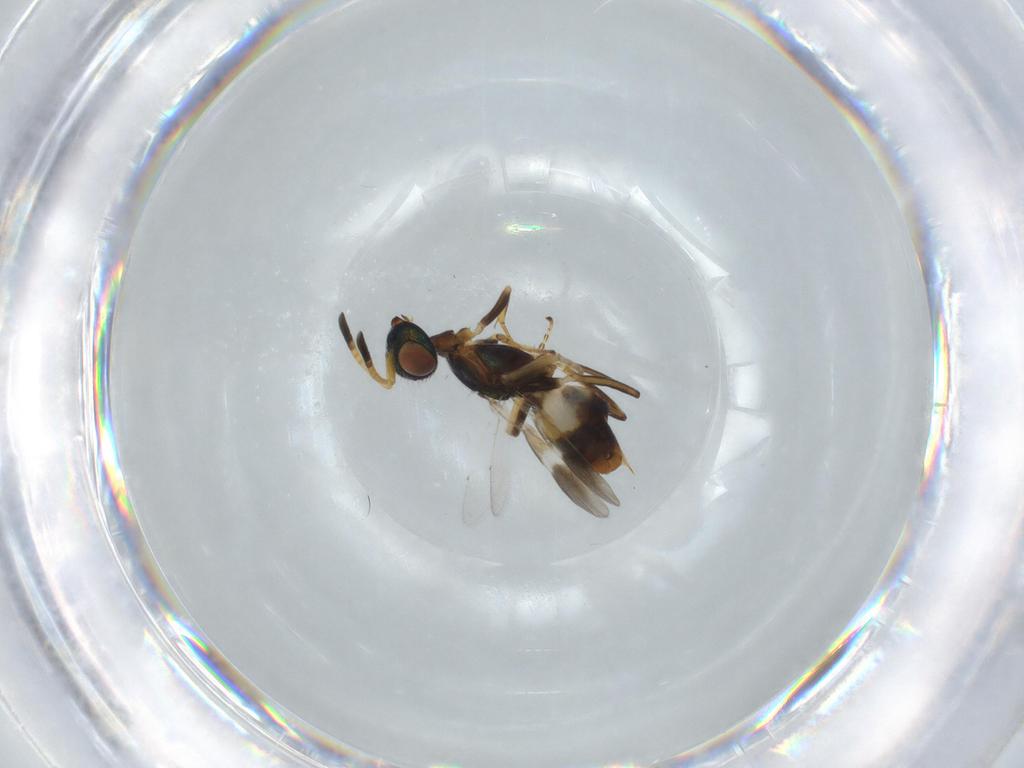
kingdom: Animalia
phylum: Arthropoda
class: Insecta
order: Hymenoptera
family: Eupelmidae
